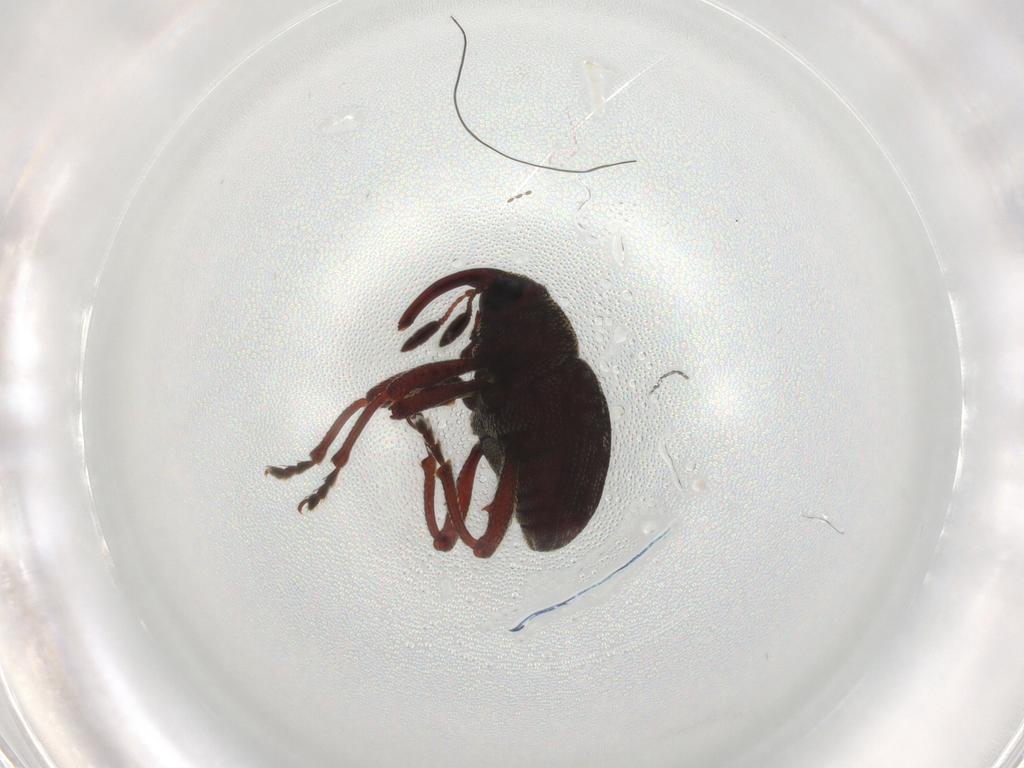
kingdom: Animalia
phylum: Arthropoda
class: Insecta
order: Coleoptera
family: Curculionidae
